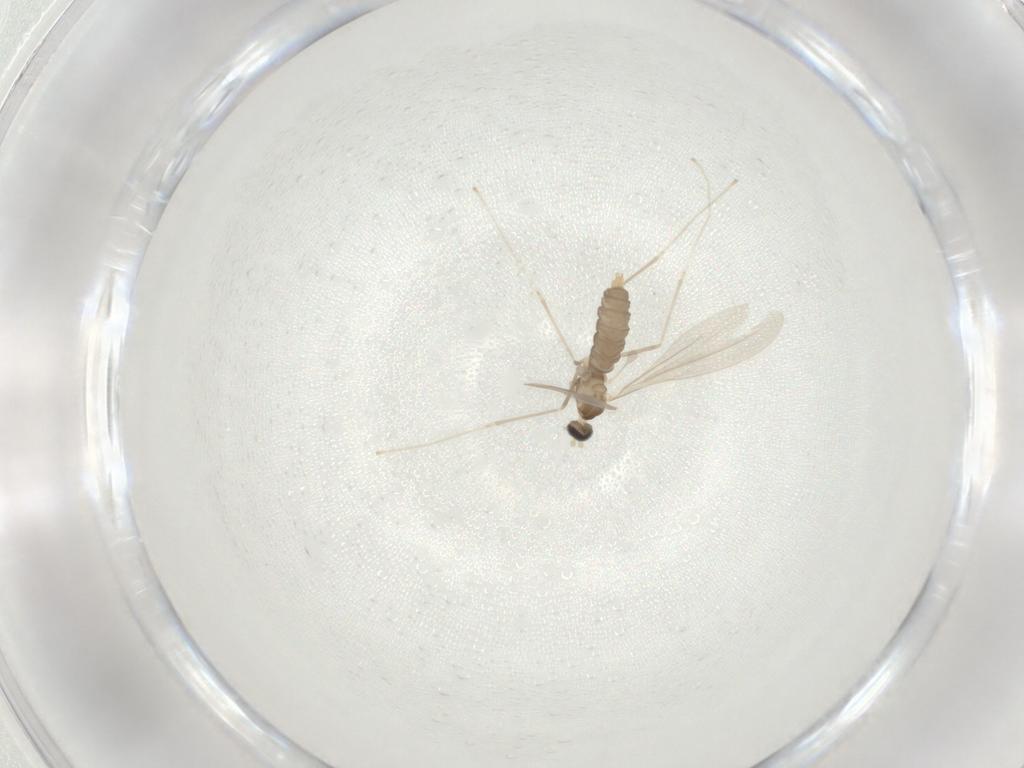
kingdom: Animalia
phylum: Arthropoda
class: Insecta
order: Diptera
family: Cecidomyiidae
